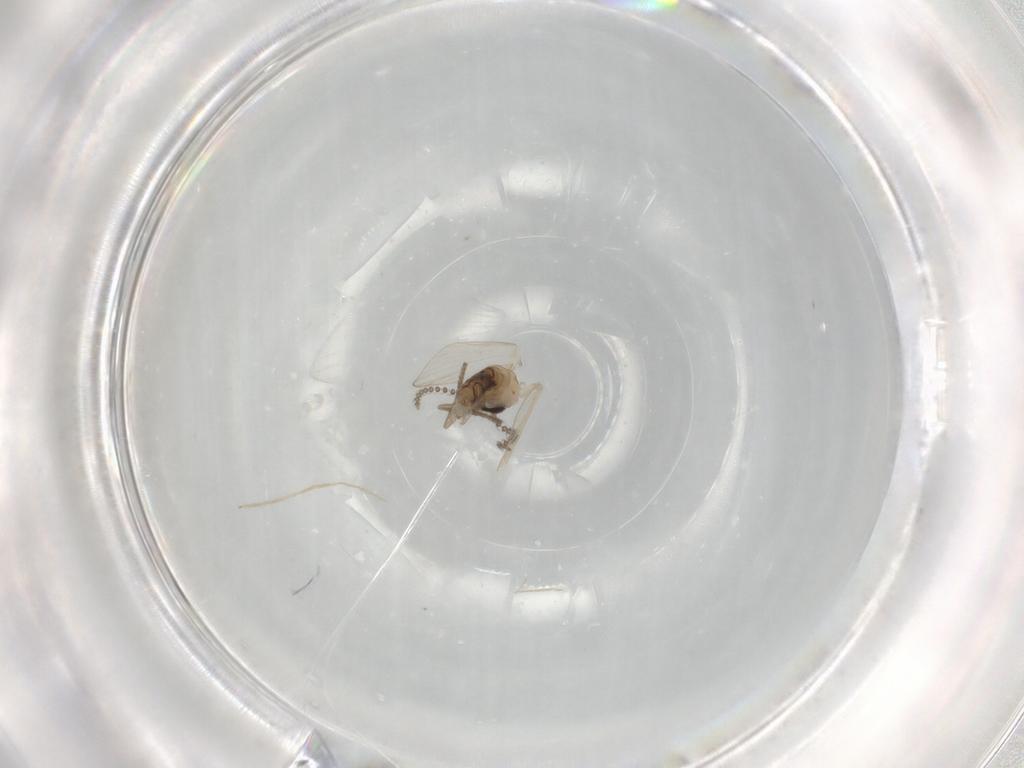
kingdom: Animalia
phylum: Arthropoda
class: Insecta
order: Diptera
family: Psychodidae
